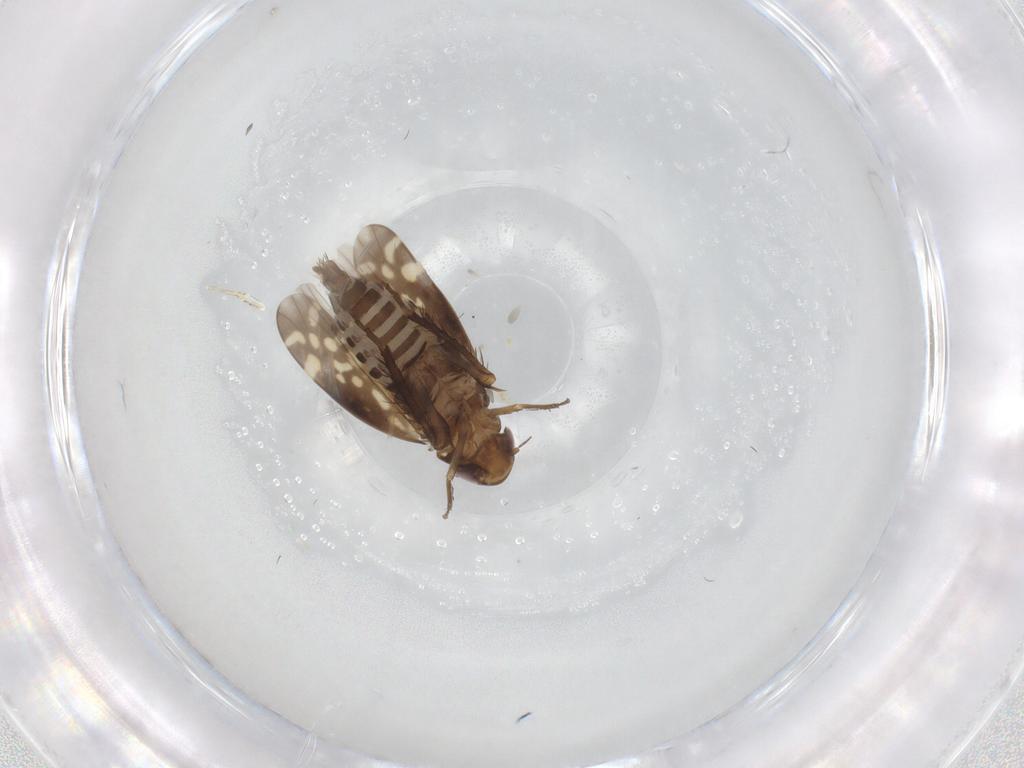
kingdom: Animalia
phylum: Arthropoda
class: Insecta
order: Hemiptera
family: Cicadellidae
